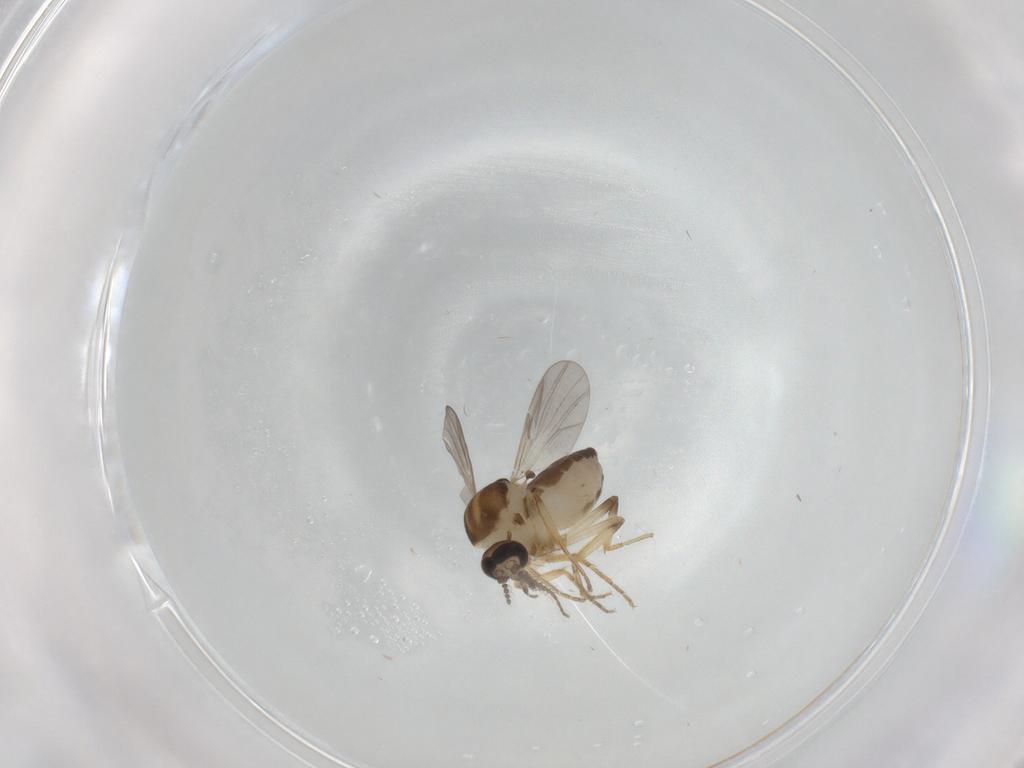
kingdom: Animalia
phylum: Arthropoda
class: Insecta
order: Diptera
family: Ceratopogonidae
